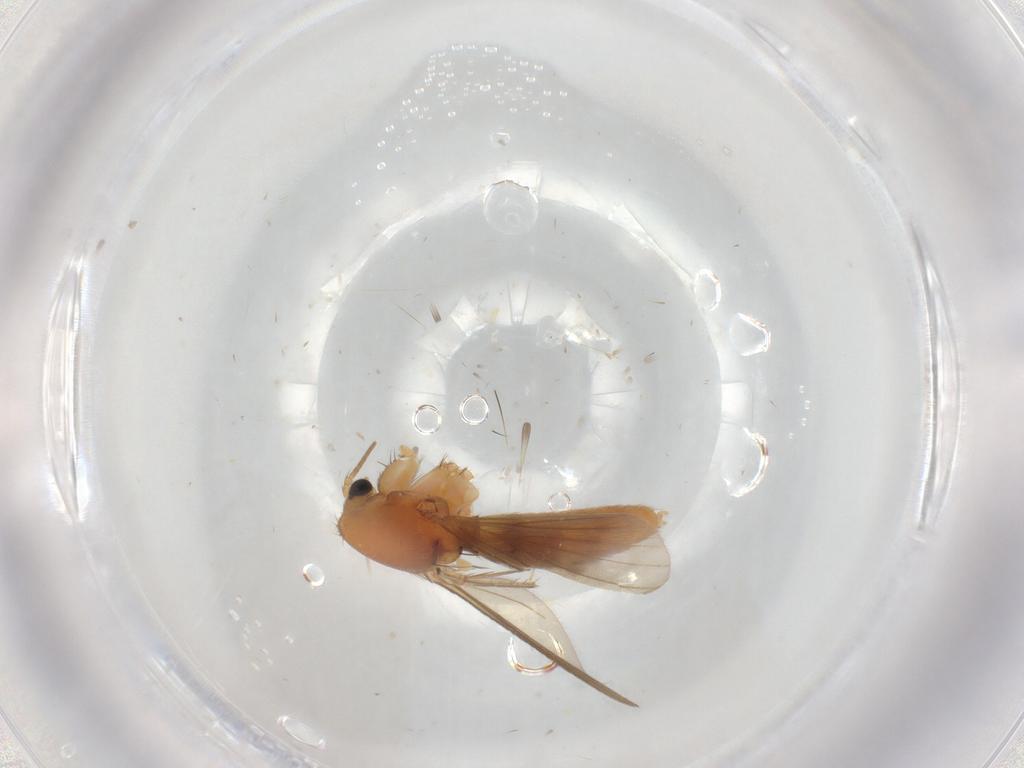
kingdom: Animalia
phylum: Arthropoda
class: Insecta
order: Diptera
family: Mycetophilidae
